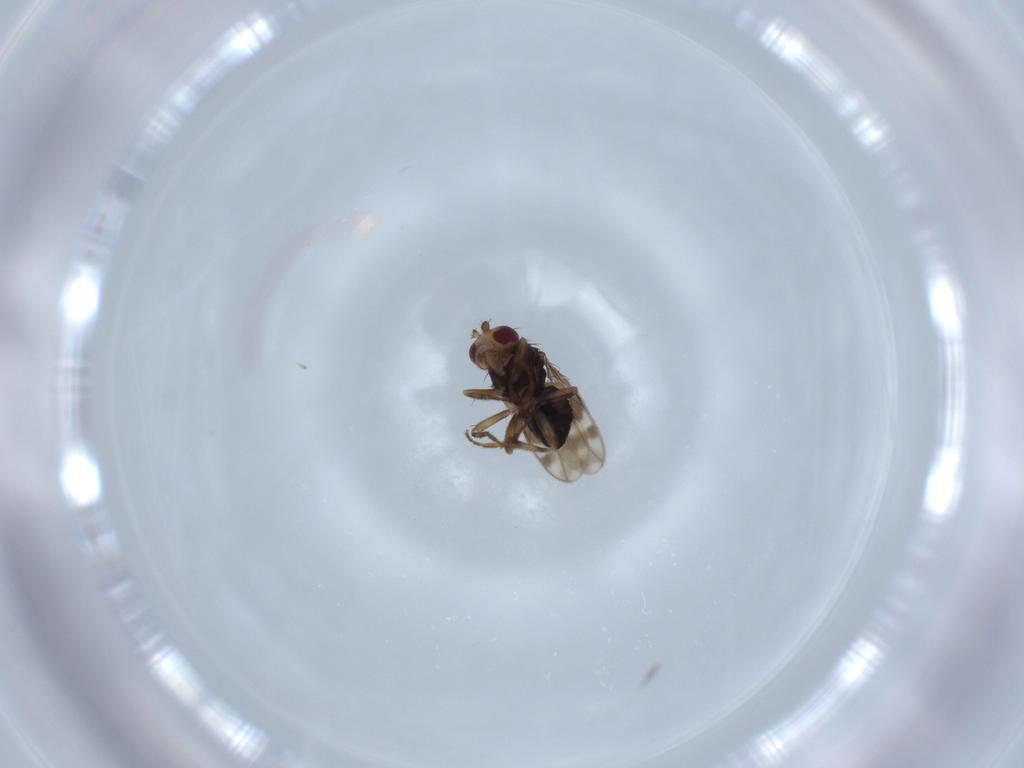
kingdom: Animalia
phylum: Arthropoda
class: Insecta
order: Diptera
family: Sphaeroceridae
